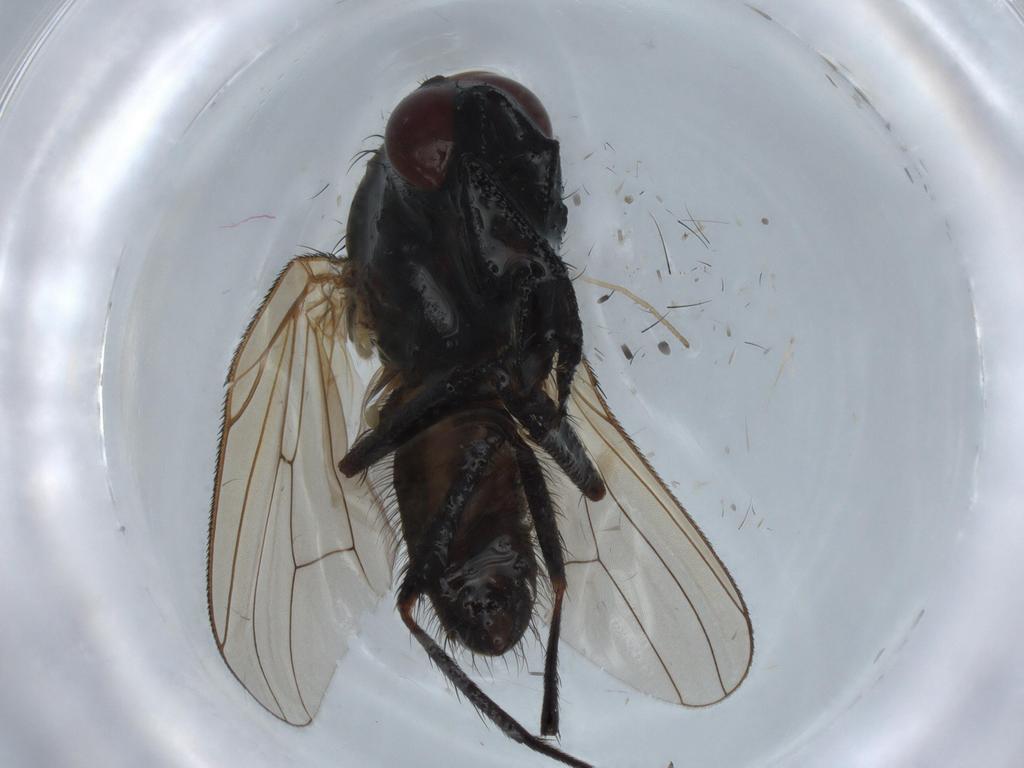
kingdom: Animalia
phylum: Arthropoda
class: Insecta
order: Diptera
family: Anthomyiidae
